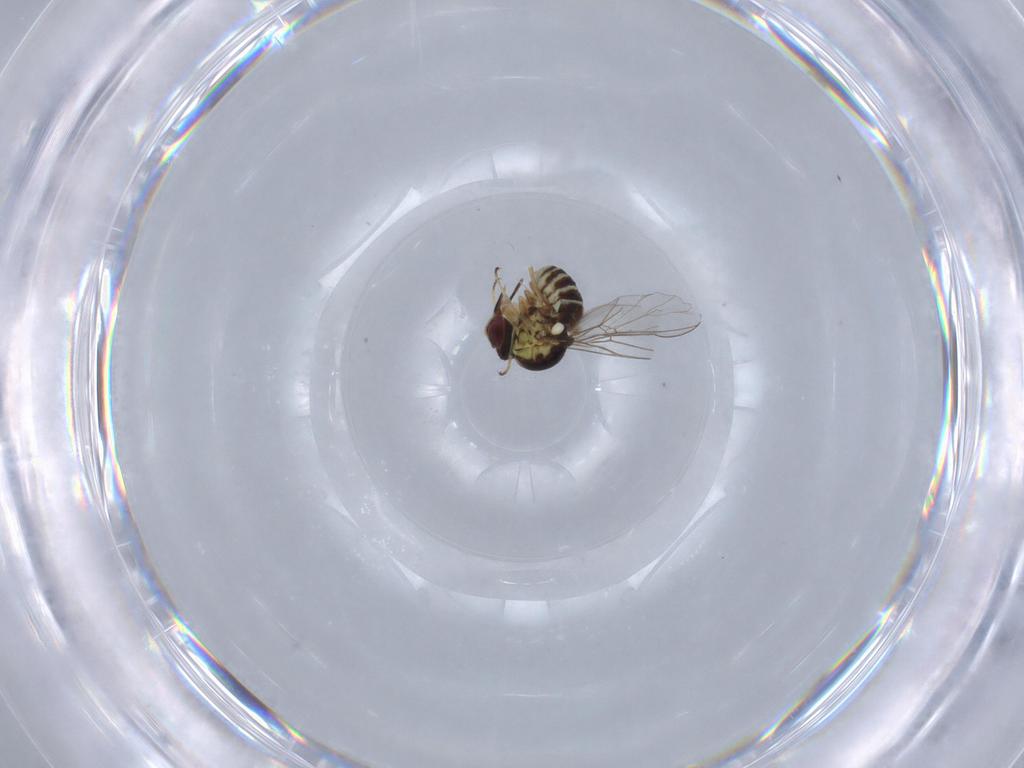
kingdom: Animalia
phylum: Arthropoda
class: Insecta
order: Diptera
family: Mythicomyiidae
